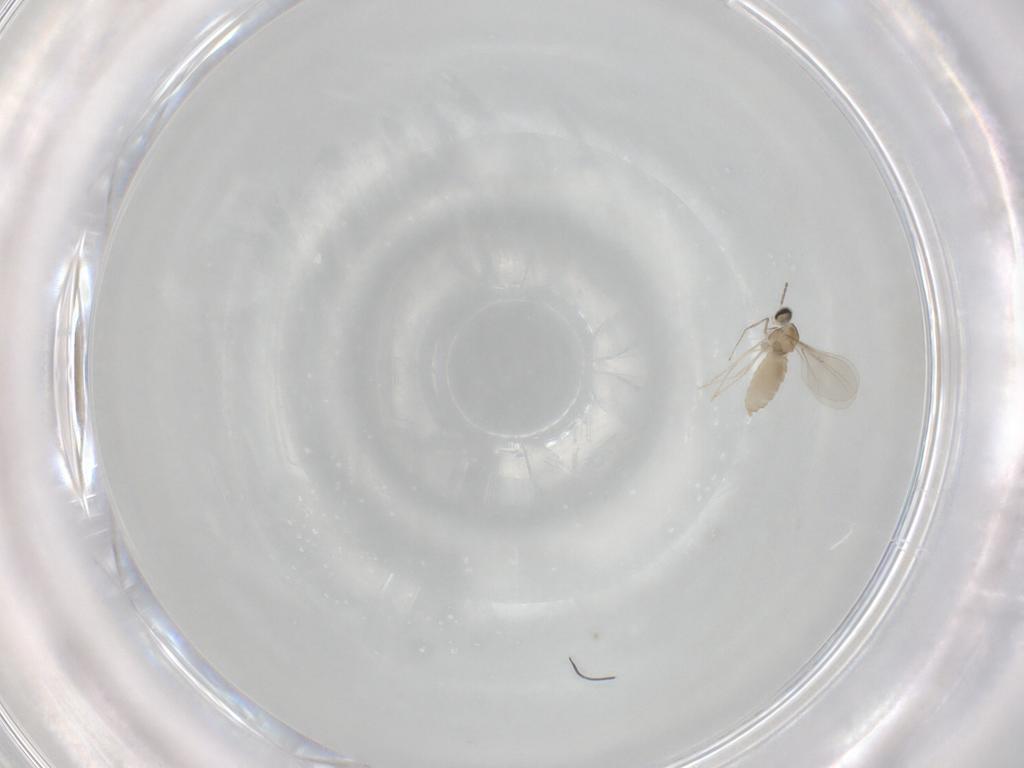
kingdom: Animalia
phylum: Arthropoda
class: Insecta
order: Diptera
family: Cecidomyiidae
